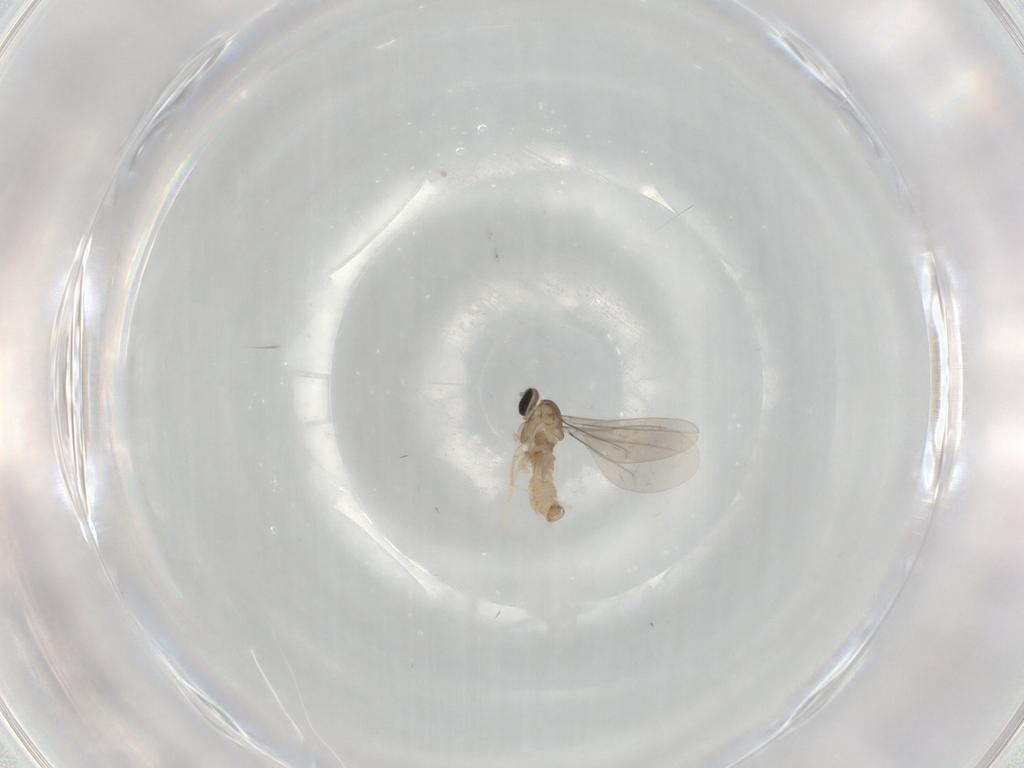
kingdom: Animalia
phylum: Arthropoda
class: Insecta
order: Diptera
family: Cecidomyiidae
